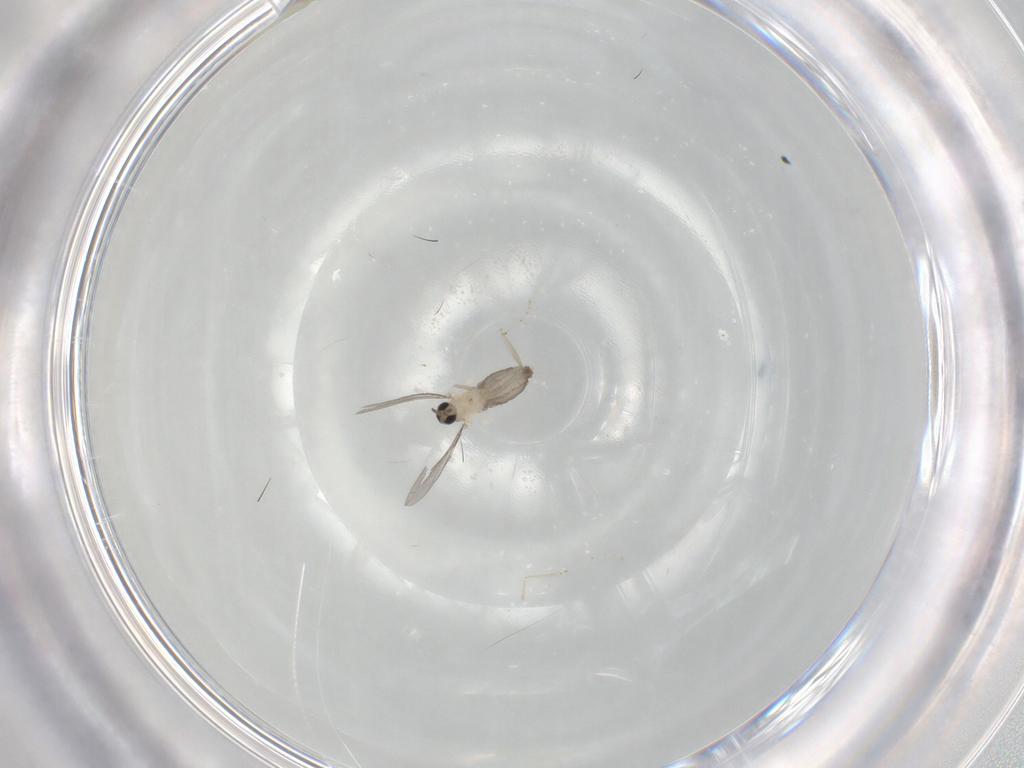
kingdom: Animalia
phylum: Arthropoda
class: Insecta
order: Diptera
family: Cecidomyiidae
